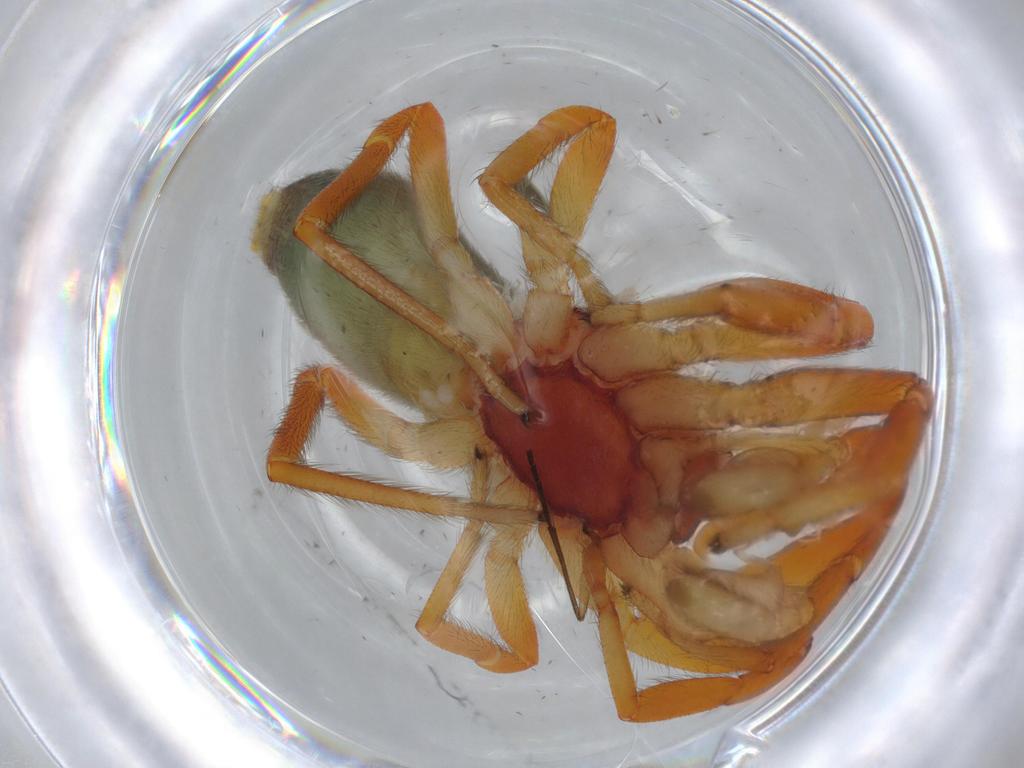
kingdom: Animalia
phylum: Arthropoda
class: Arachnida
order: Araneae
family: Caponiidae
